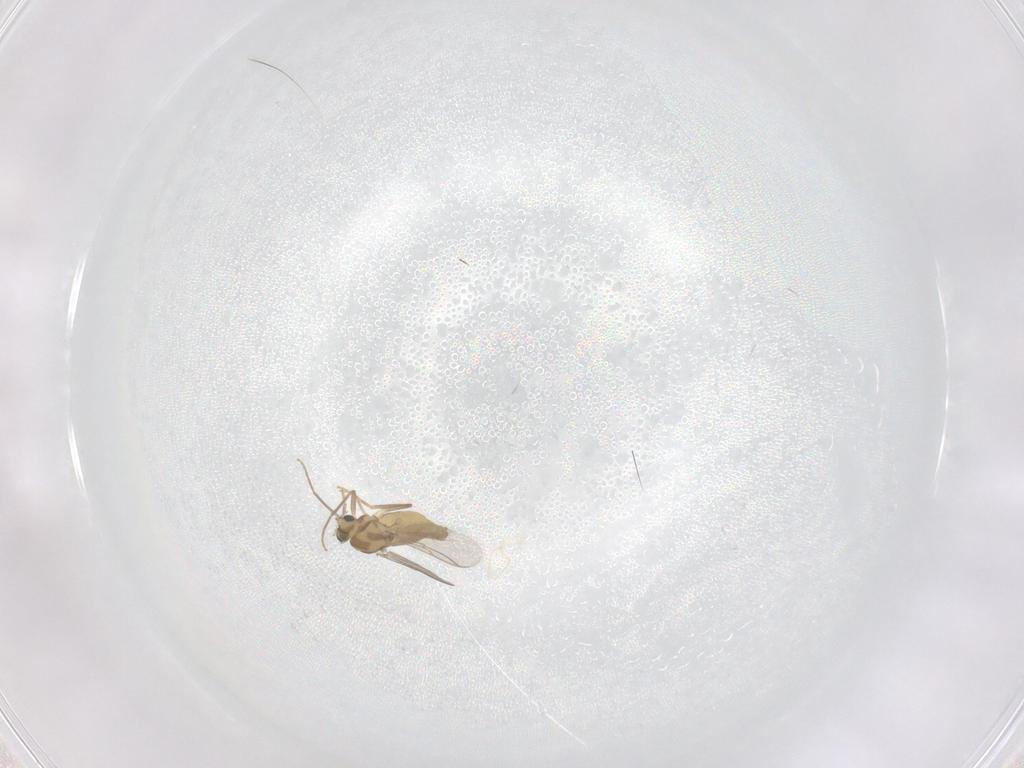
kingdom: Animalia
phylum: Arthropoda
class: Insecta
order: Diptera
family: Chironomidae
